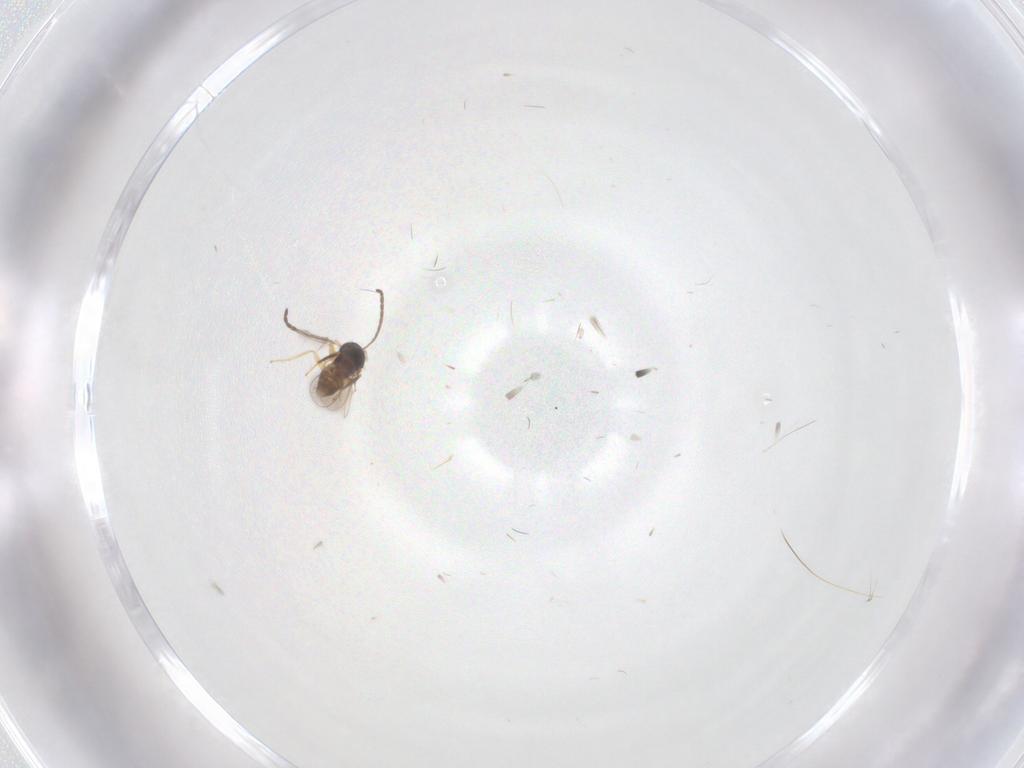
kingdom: Animalia
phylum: Arthropoda
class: Insecta
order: Hymenoptera
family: Mymaridae
